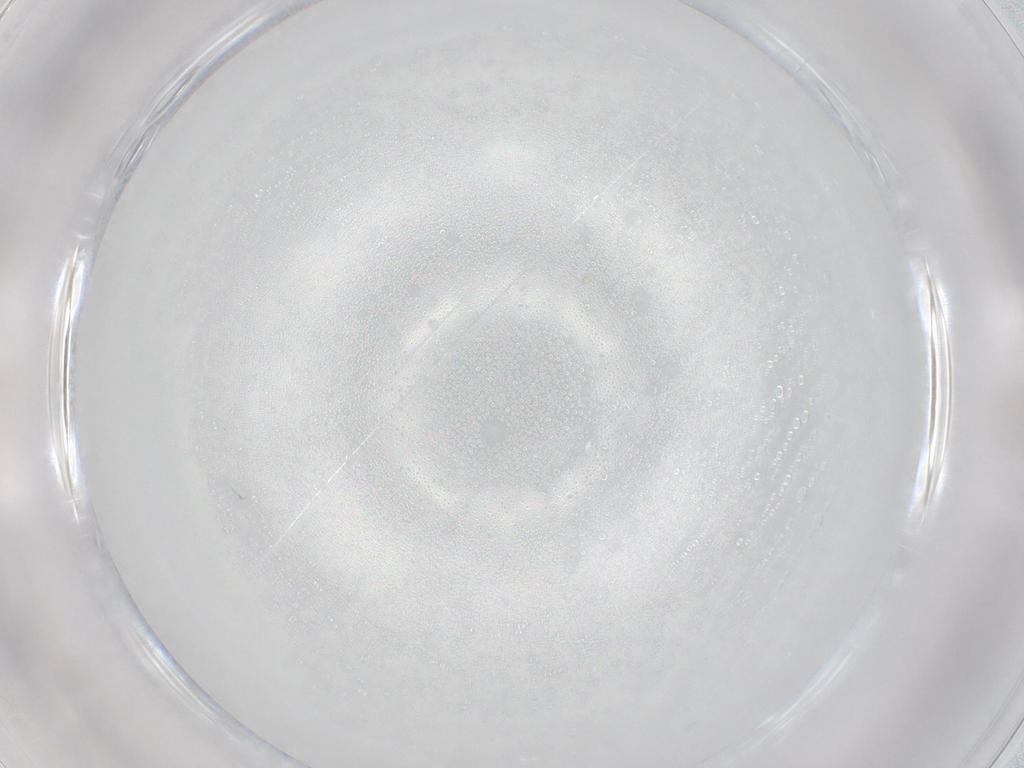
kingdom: Animalia
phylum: Arthropoda
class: Insecta
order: Diptera
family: Cecidomyiidae
